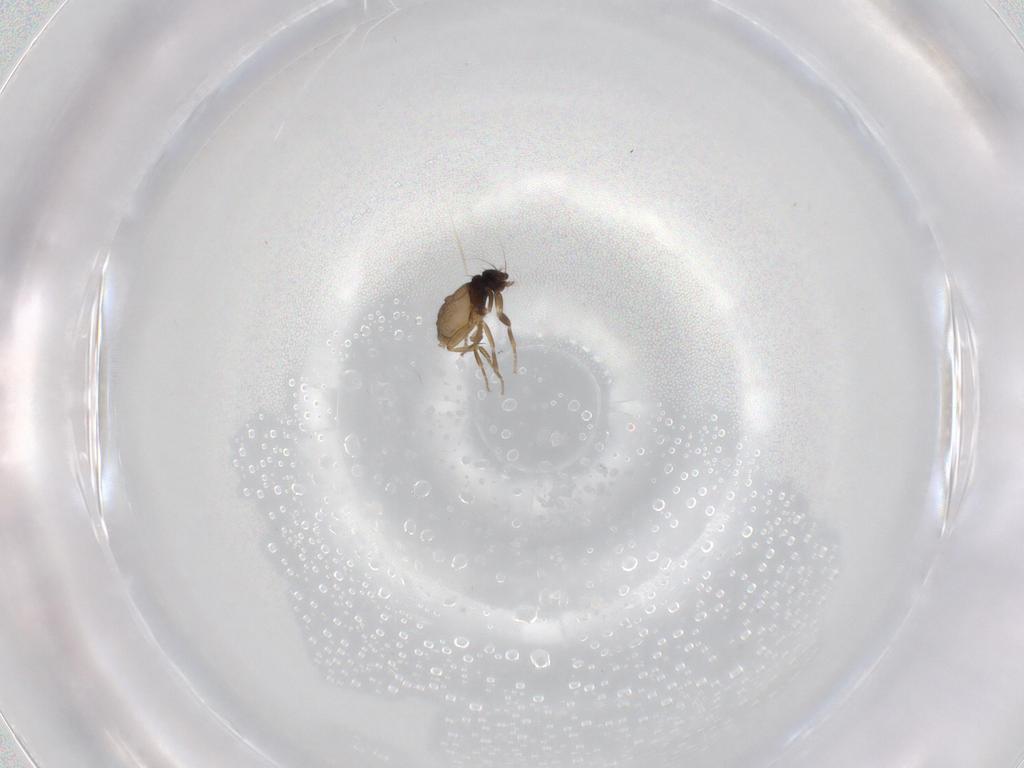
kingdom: Animalia
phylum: Arthropoda
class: Insecta
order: Diptera
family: Phoridae
